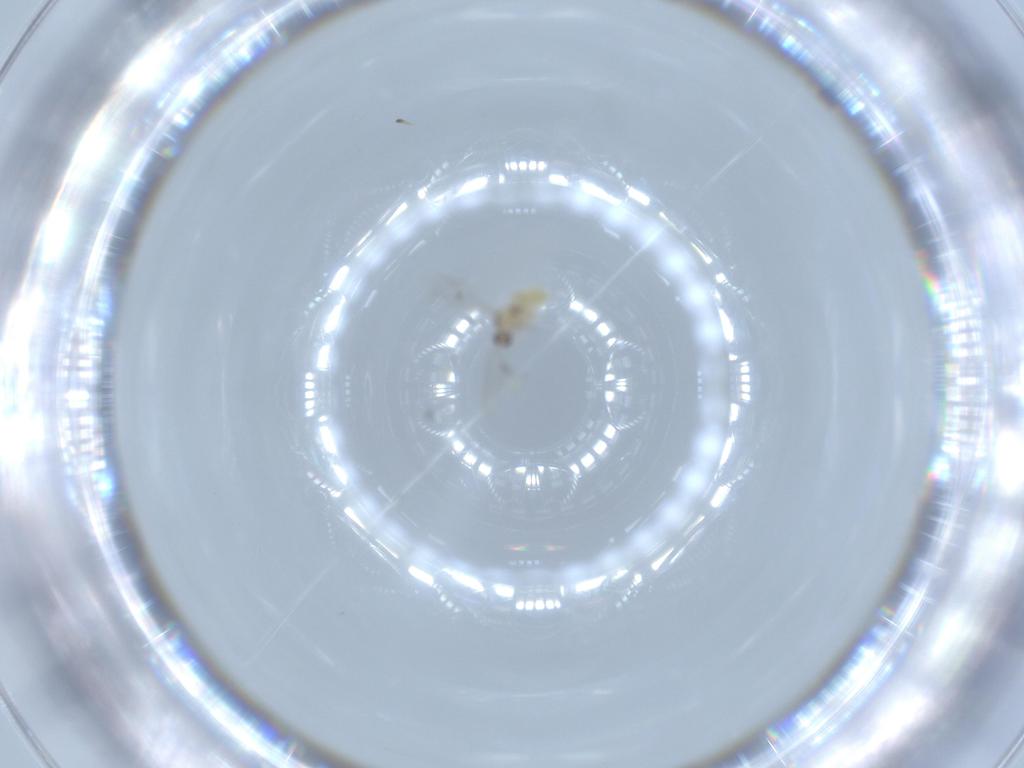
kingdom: Animalia
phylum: Arthropoda
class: Insecta
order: Diptera
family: Cecidomyiidae
